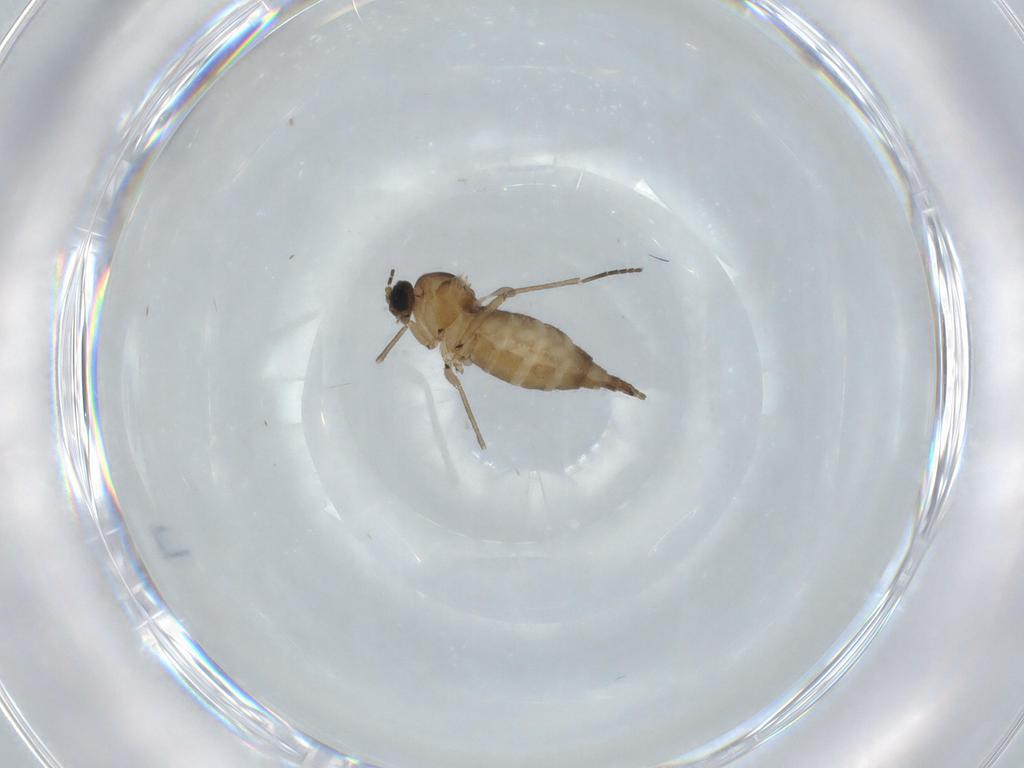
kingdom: Animalia
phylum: Arthropoda
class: Insecta
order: Diptera
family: Sciaridae
